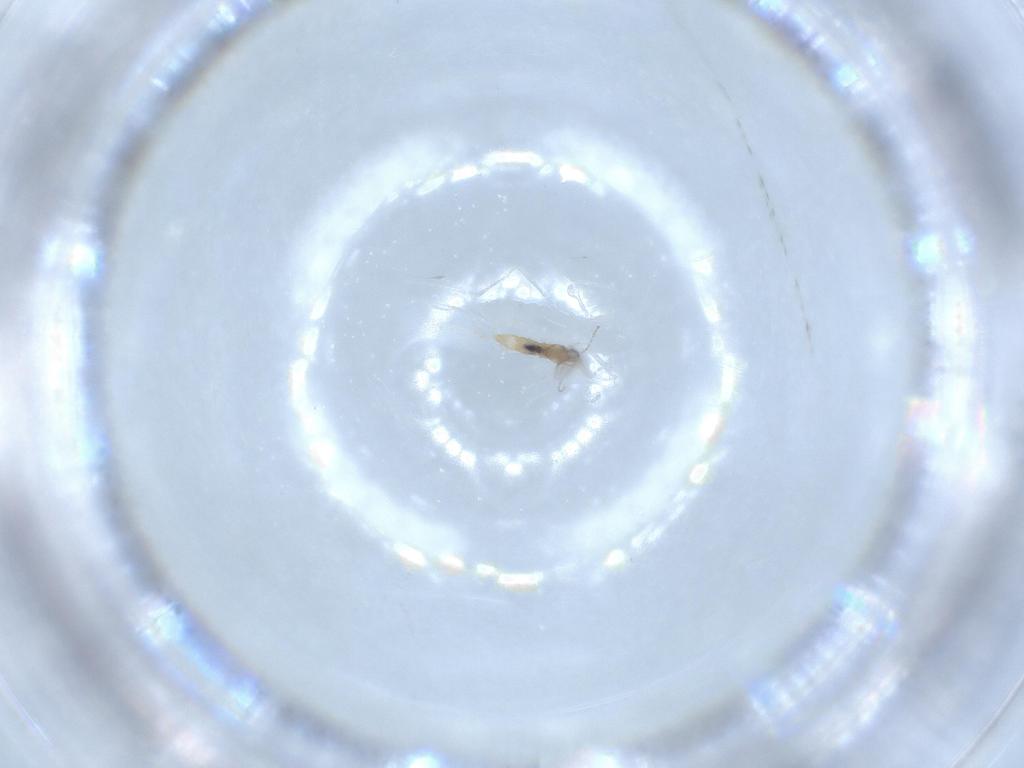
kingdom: Animalia
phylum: Arthropoda
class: Insecta
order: Diptera
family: Cecidomyiidae
